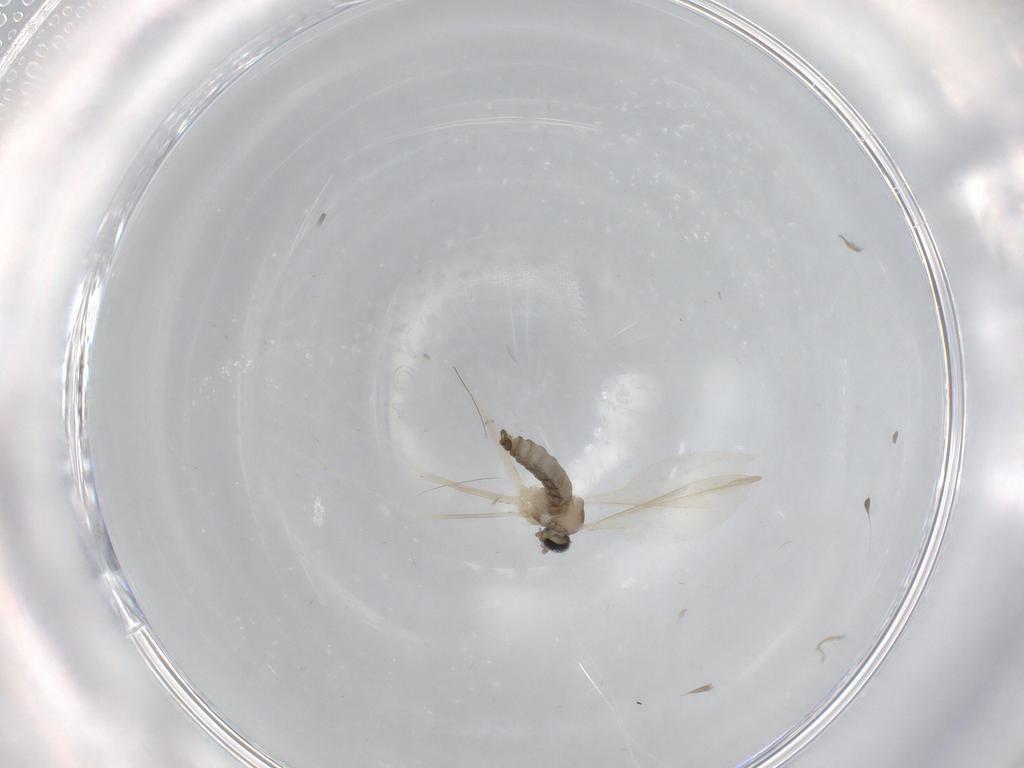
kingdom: Animalia
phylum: Arthropoda
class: Insecta
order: Diptera
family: Cecidomyiidae
